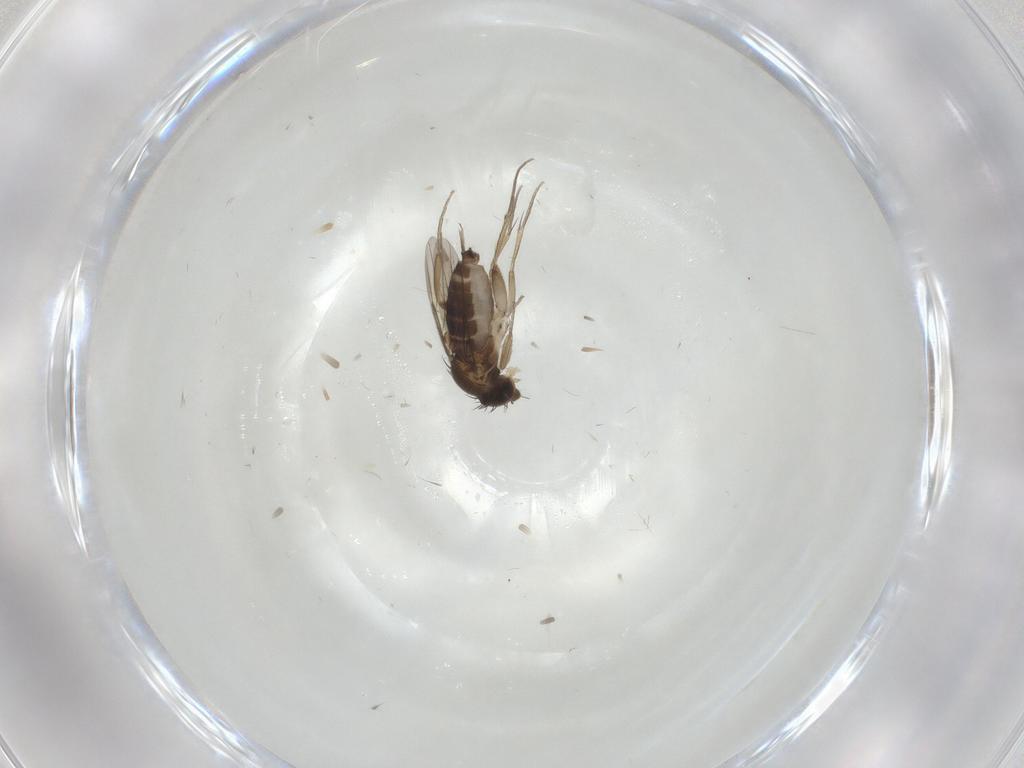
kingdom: Animalia
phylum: Arthropoda
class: Insecta
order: Diptera
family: Phoridae
